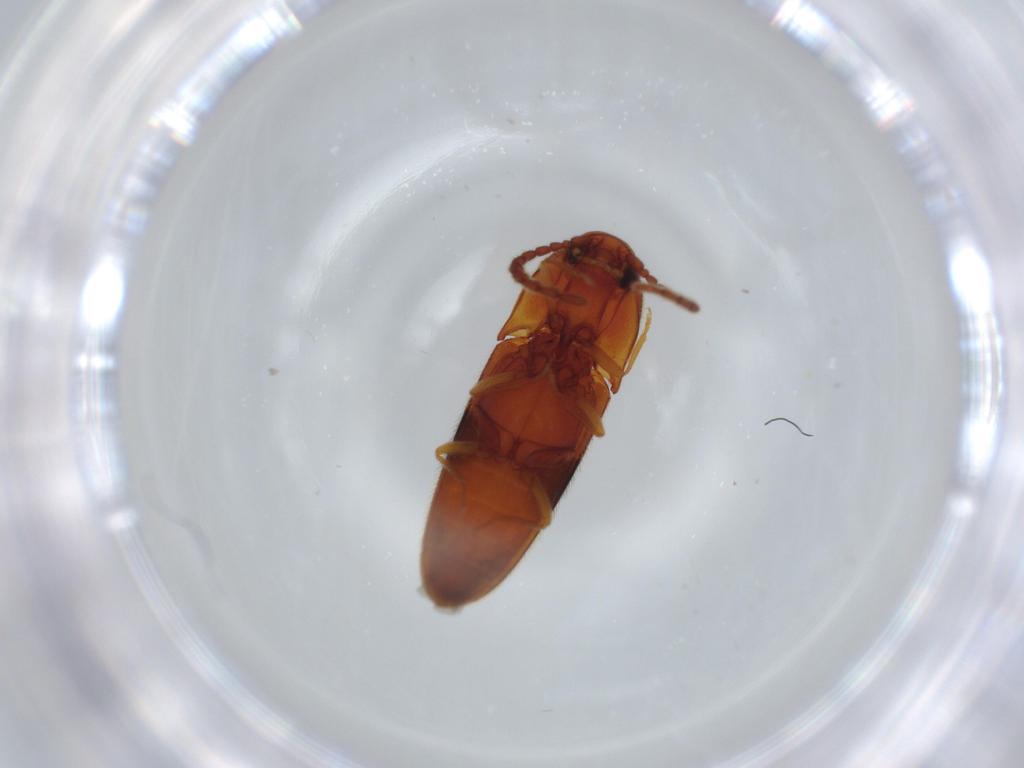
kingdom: Animalia
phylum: Arthropoda
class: Insecta
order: Coleoptera
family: Elateridae
